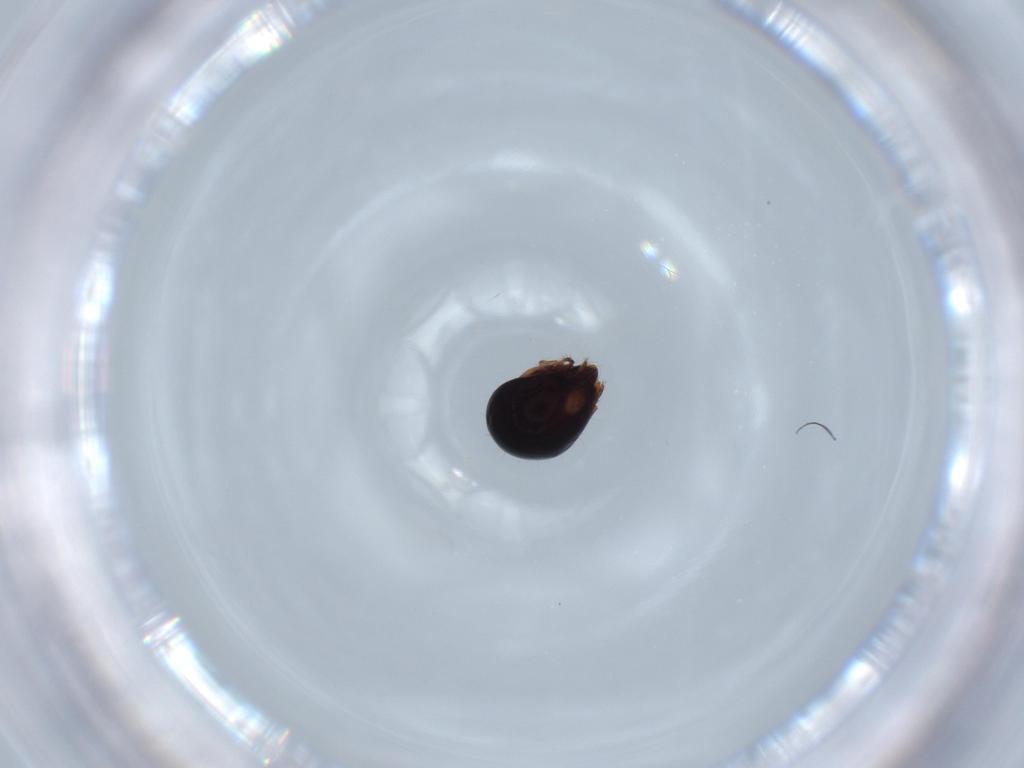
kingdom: Animalia
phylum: Arthropoda
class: Arachnida
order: Sarcoptiformes
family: Ceratozetidae
